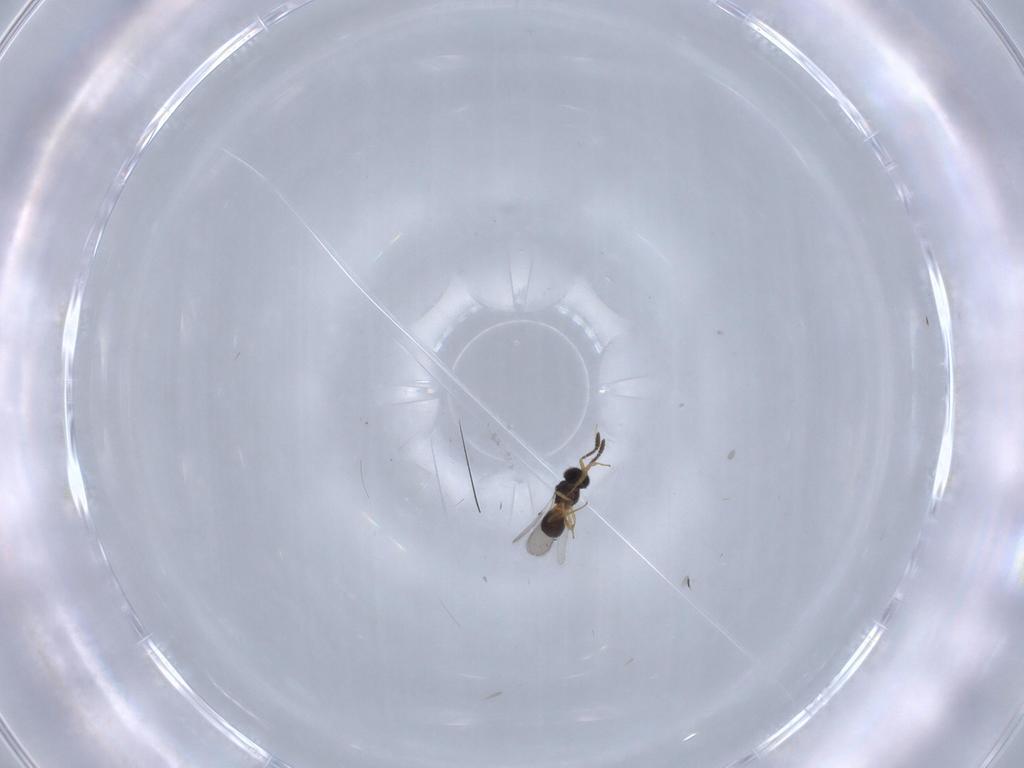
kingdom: Animalia
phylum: Arthropoda
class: Insecta
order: Hymenoptera
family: Scelionidae
